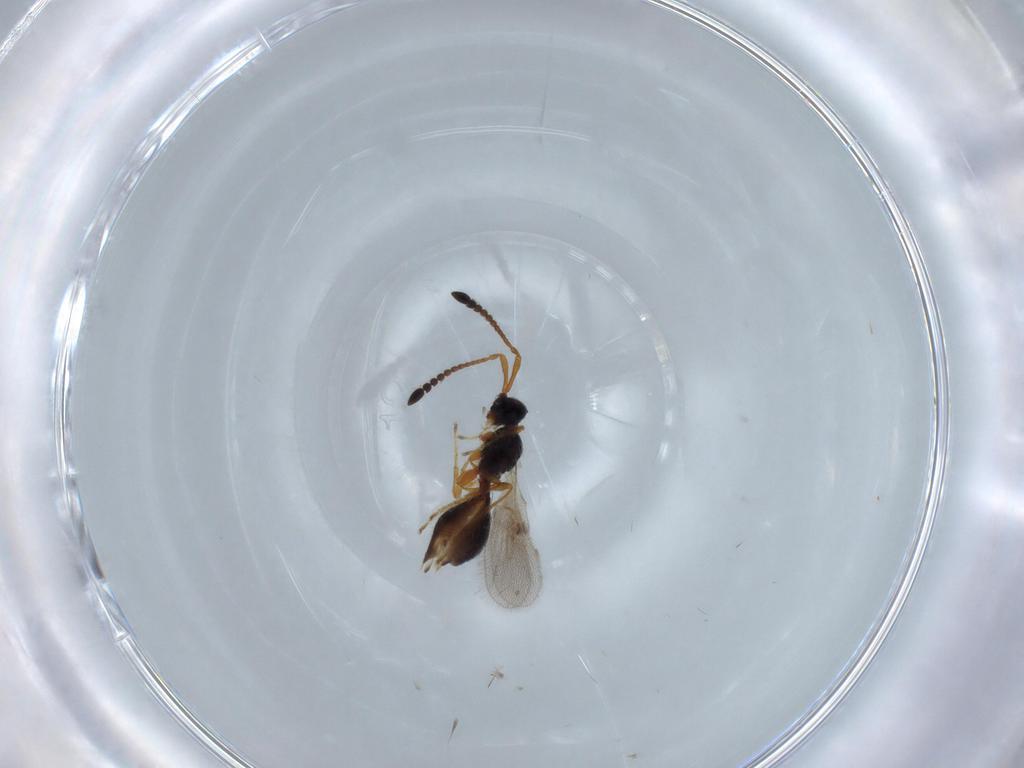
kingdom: Animalia
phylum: Arthropoda
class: Insecta
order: Hymenoptera
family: Diapriidae
